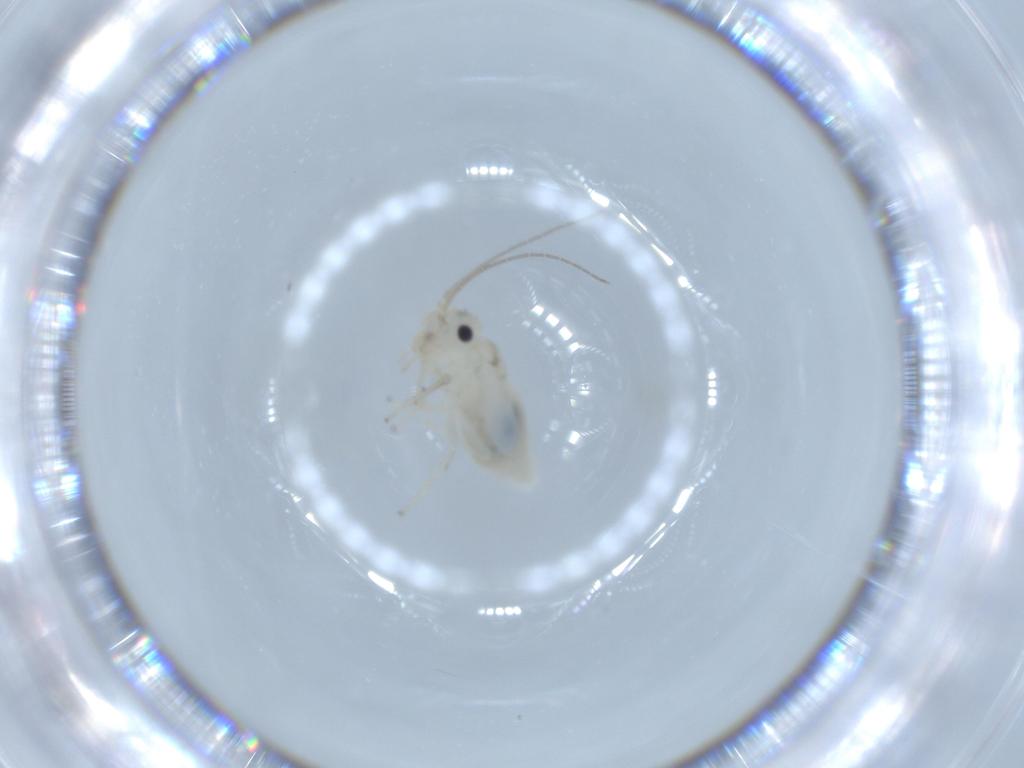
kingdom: Animalia
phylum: Arthropoda
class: Insecta
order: Psocodea
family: Caeciliusidae
